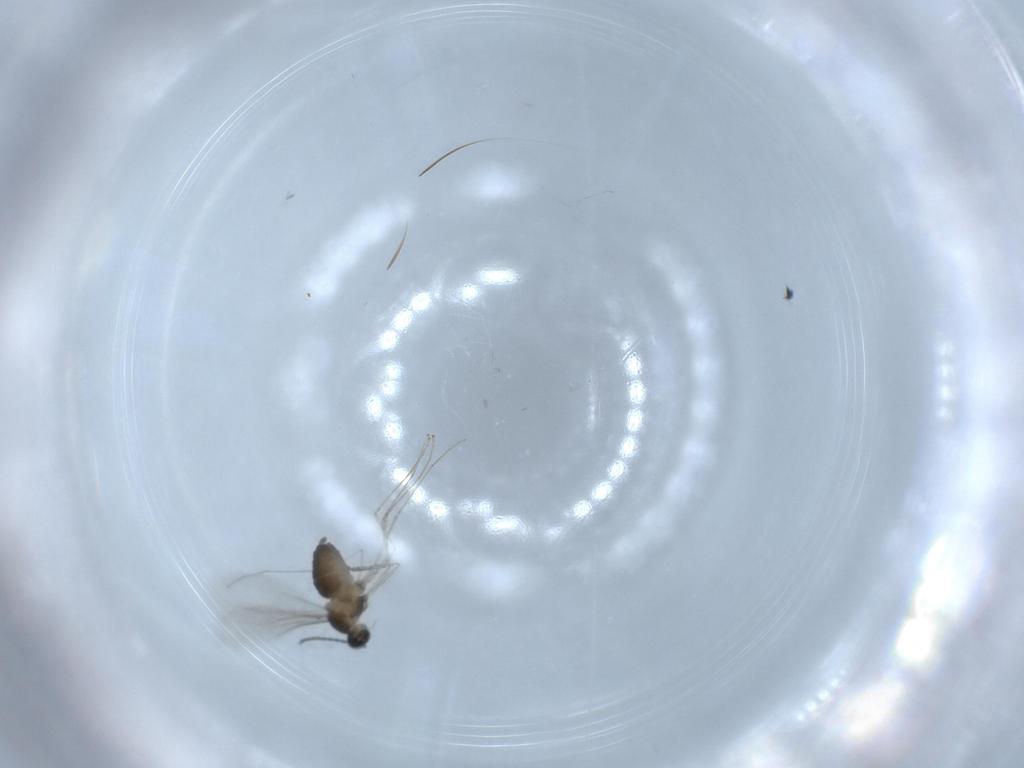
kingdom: Animalia
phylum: Arthropoda
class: Insecta
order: Diptera
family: Cecidomyiidae
